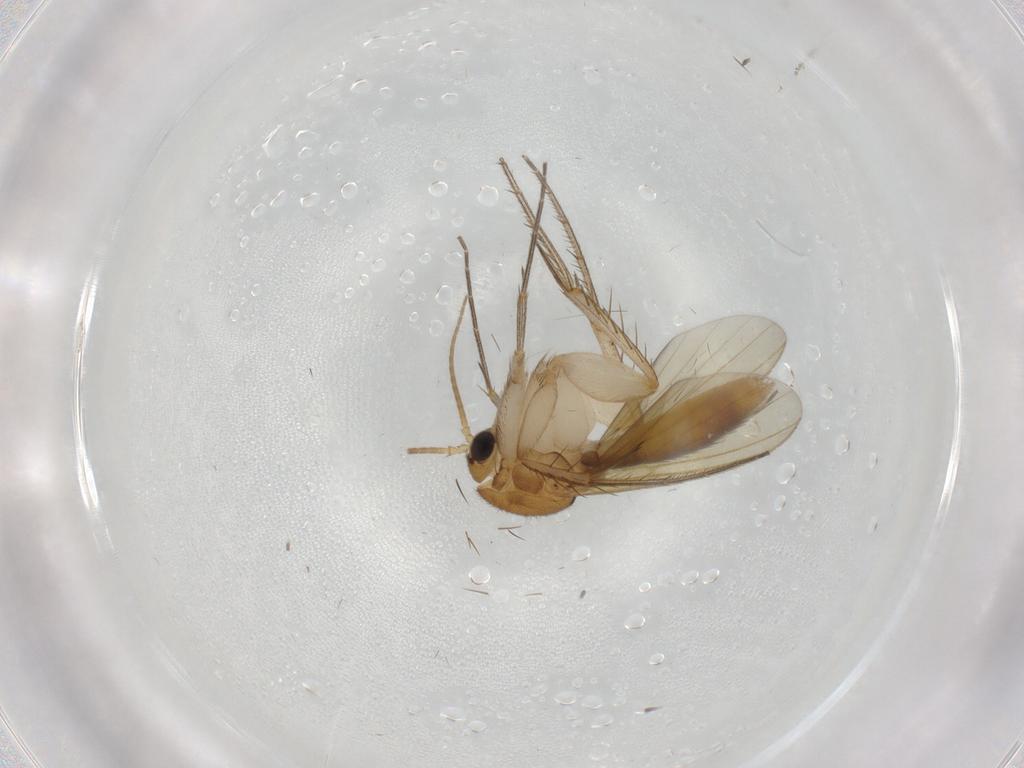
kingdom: Animalia
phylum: Arthropoda
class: Insecta
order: Diptera
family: Mycetophilidae
